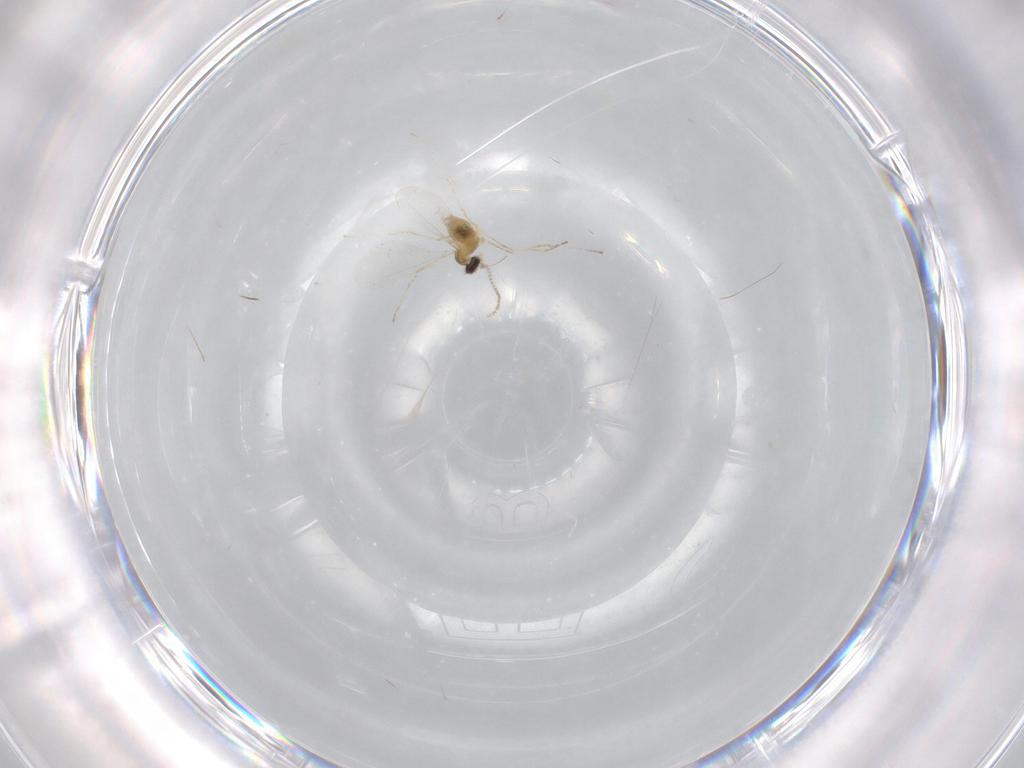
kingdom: Animalia
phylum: Arthropoda
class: Insecta
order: Diptera
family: Cecidomyiidae
